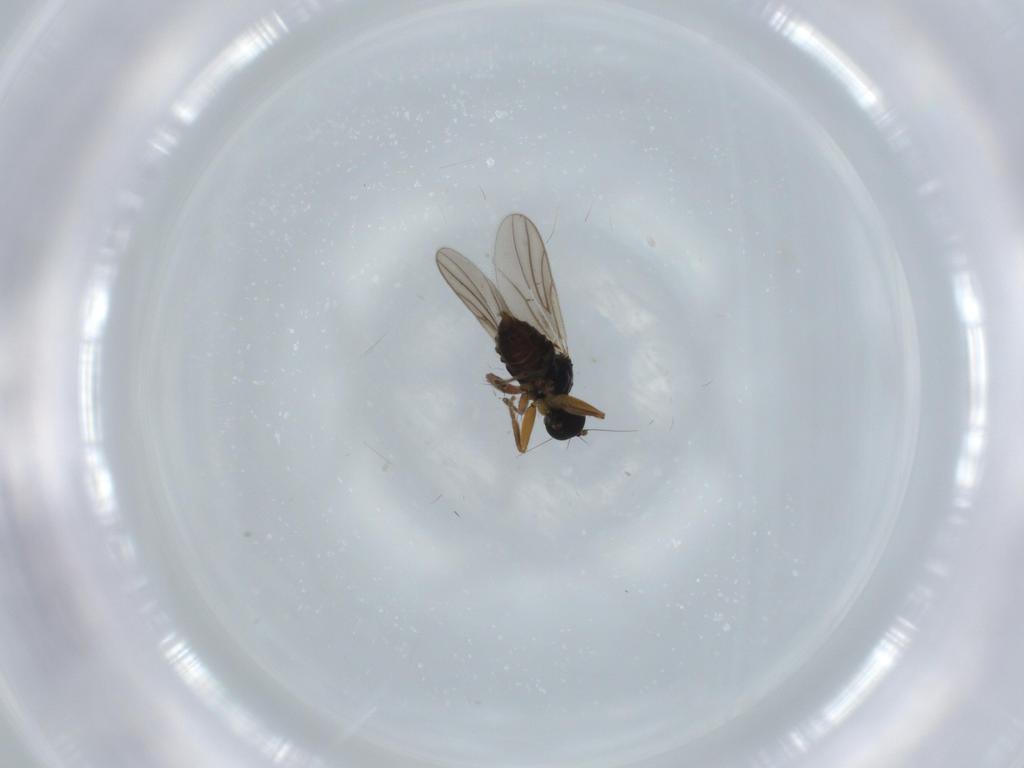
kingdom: Animalia
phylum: Arthropoda
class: Insecta
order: Diptera
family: Hybotidae
